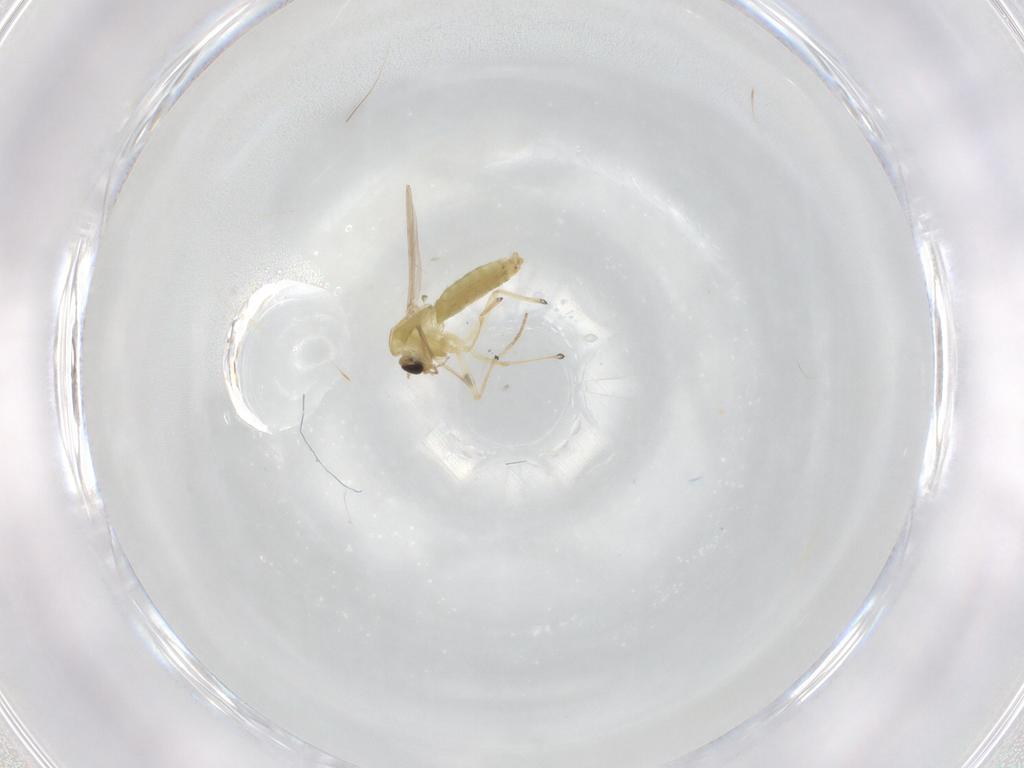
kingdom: Animalia
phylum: Arthropoda
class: Insecta
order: Diptera
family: Chironomidae
